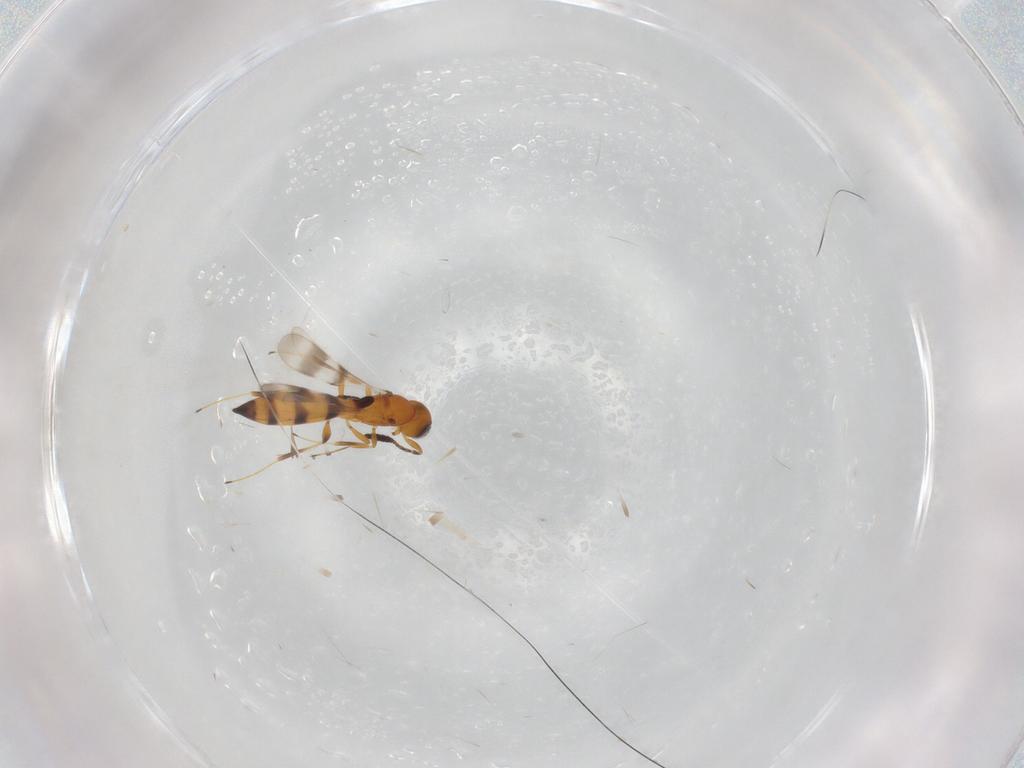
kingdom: Animalia
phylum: Arthropoda
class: Insecta
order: Hymenoptera
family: Scelionidae
